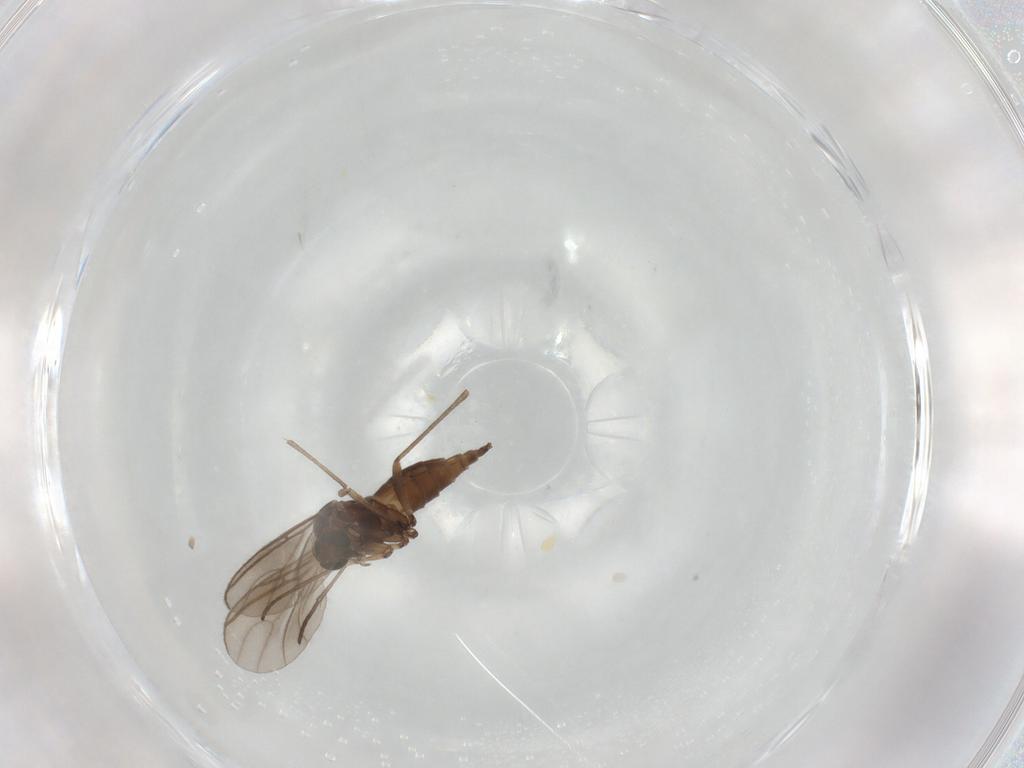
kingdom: Animalia
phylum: Arthropoda
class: Insecta
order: Diptera
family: Sciaridae
